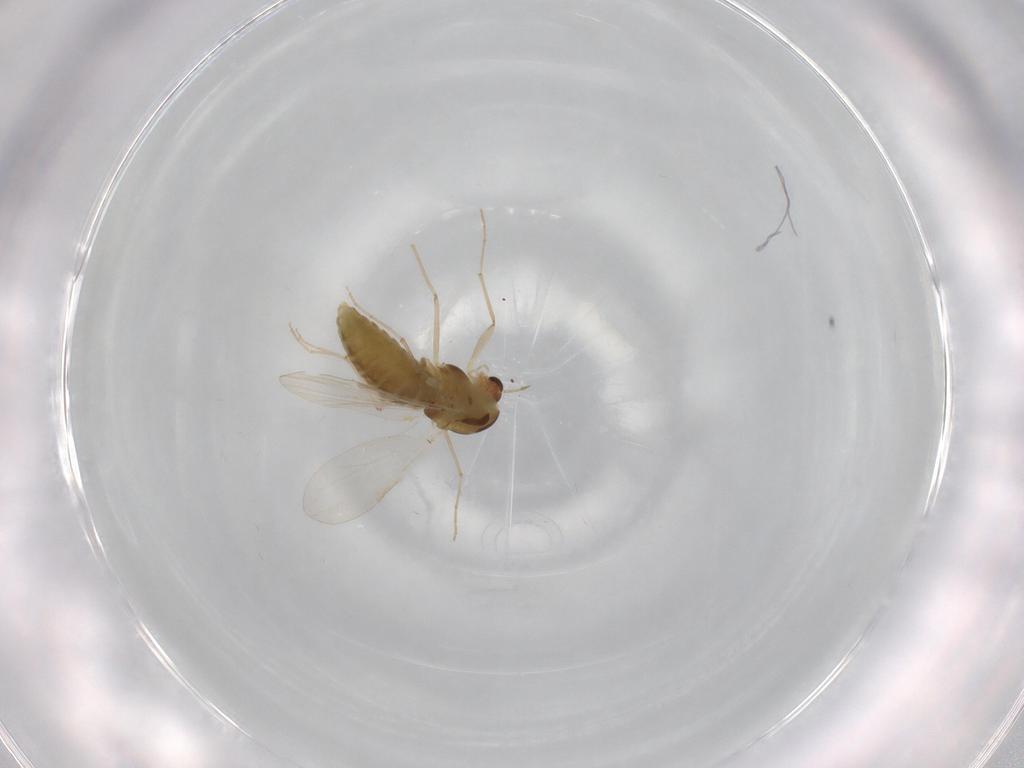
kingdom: Animalia
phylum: Arthropoda
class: Insecta
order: Diptera
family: Chironomidae
